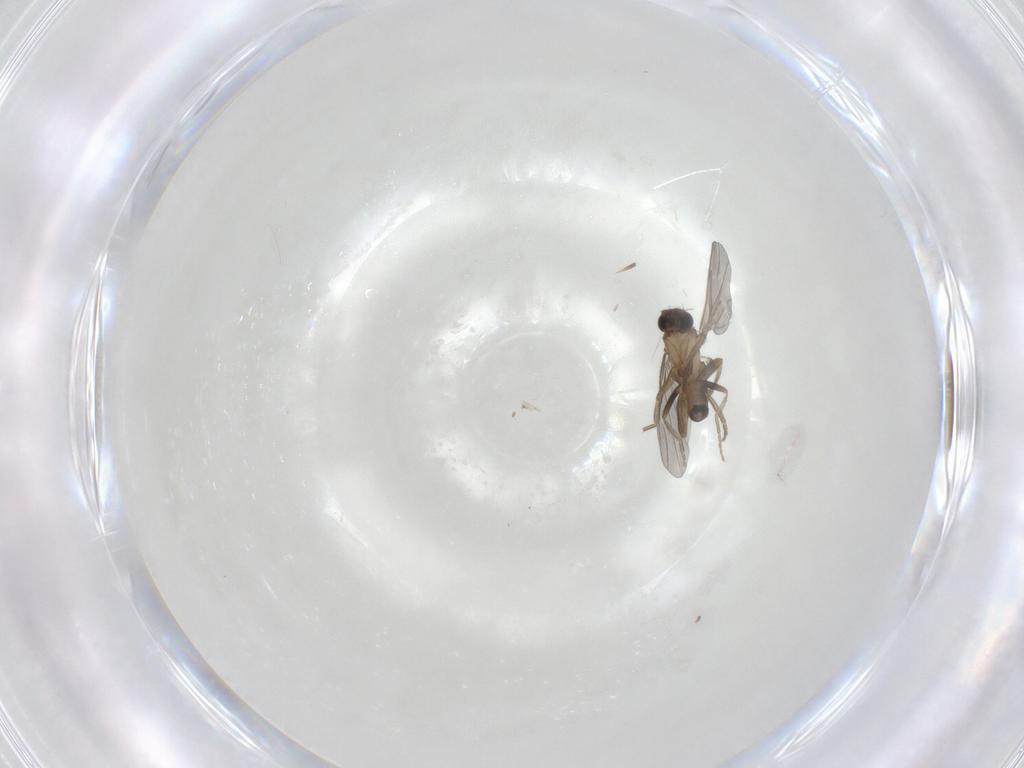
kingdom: Animalia
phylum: Arthropoda
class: Insecta
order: Diptera
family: Phoridae
